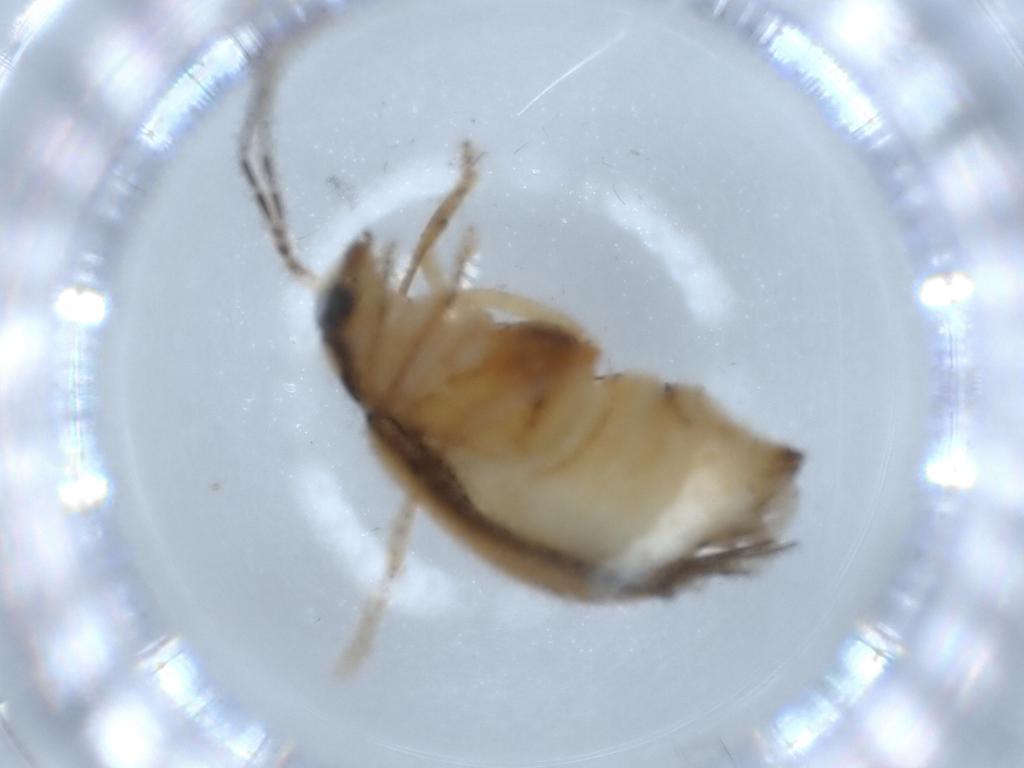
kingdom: Animalia
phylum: Arthropoda
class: Insecta
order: Coleoptera
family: Chrysomelidae
